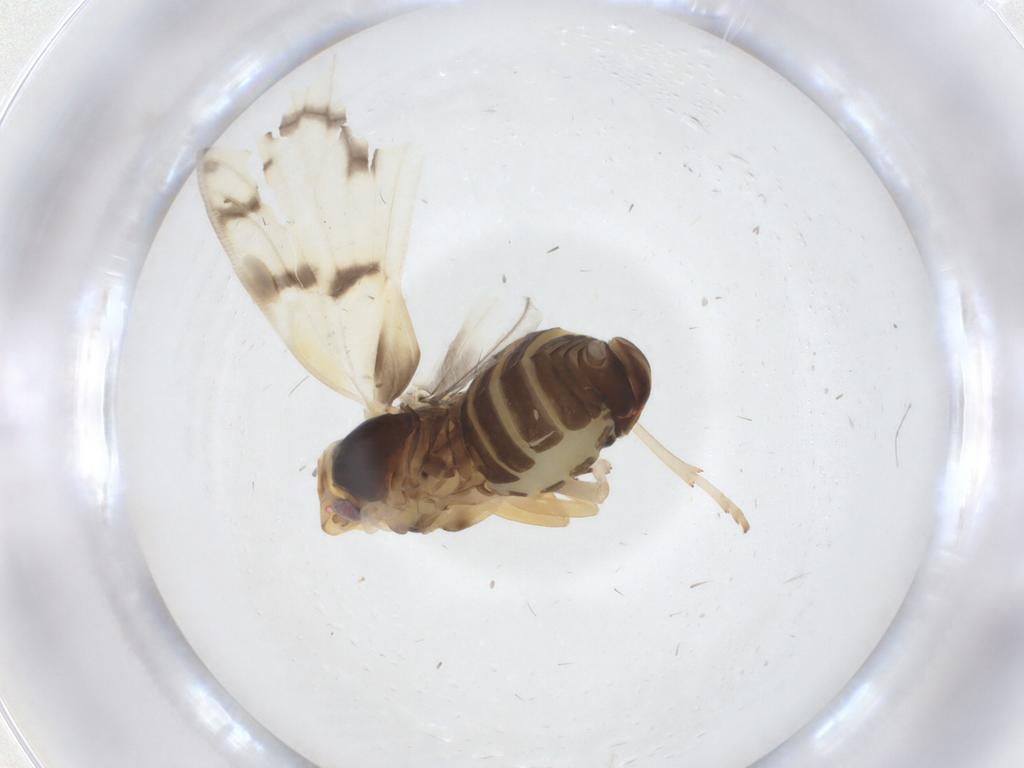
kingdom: Animalia
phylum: Arthropoda
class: Insecta
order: Hemiptera
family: Cixiidae
